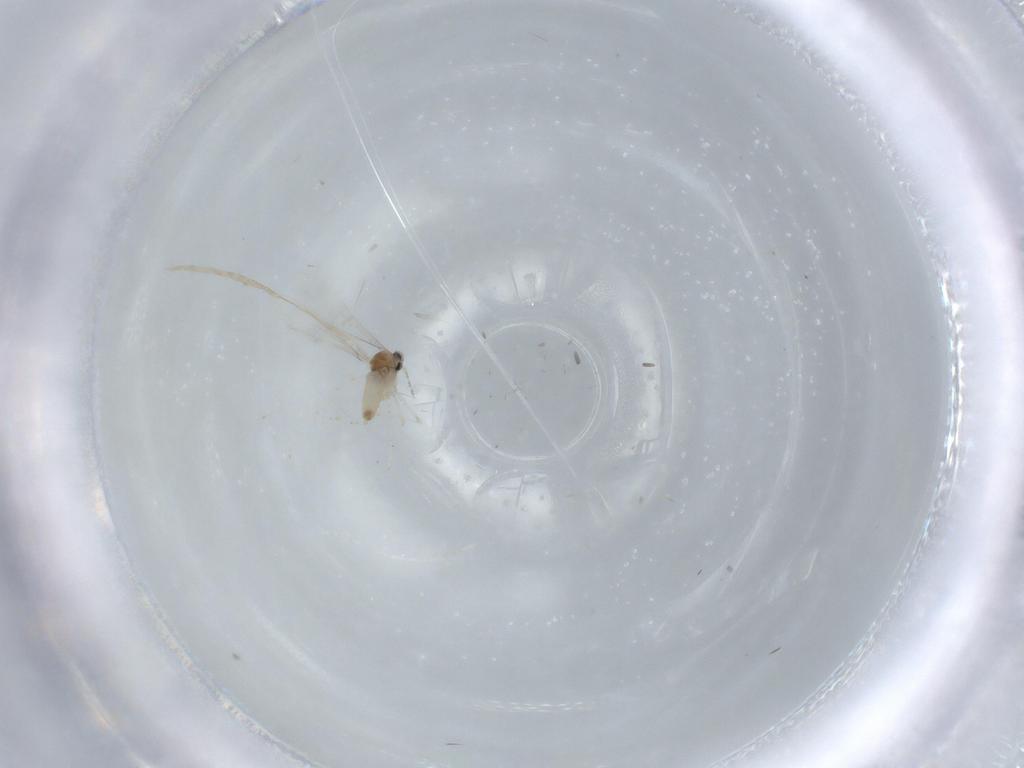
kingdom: Animalia
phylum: Arthropoda
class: Insecta
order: Diptera
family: Cecidomyiidae
